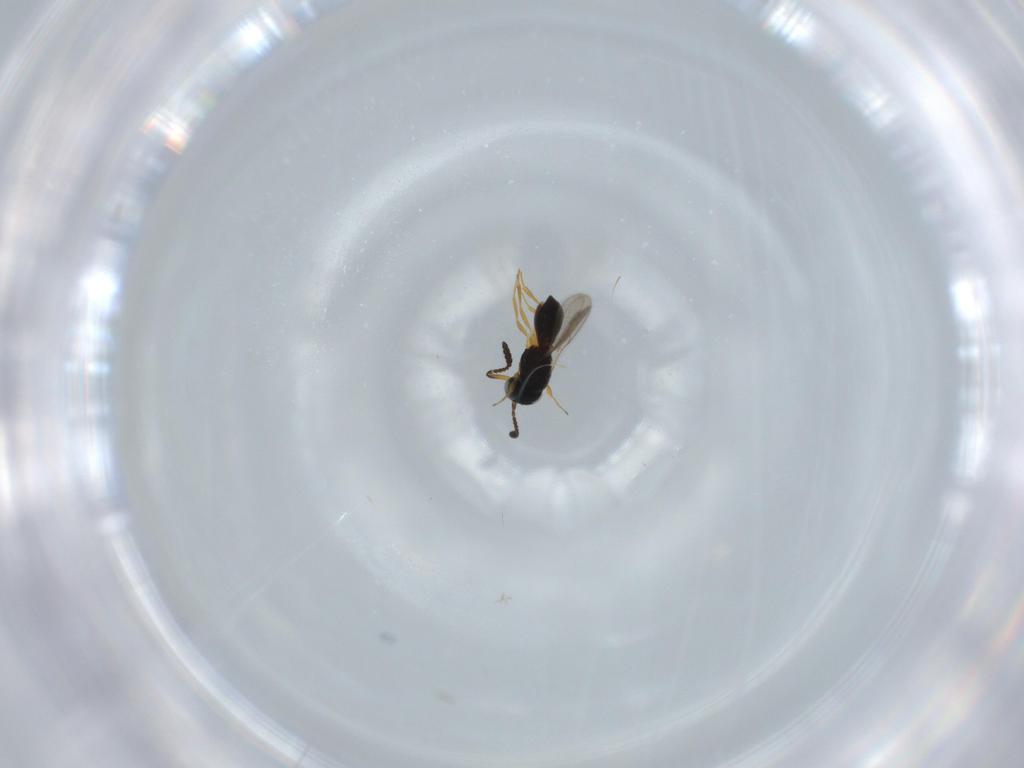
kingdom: Animalia
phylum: Arthropoda
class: Insecta
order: Hymenoptera
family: Scelionidae
